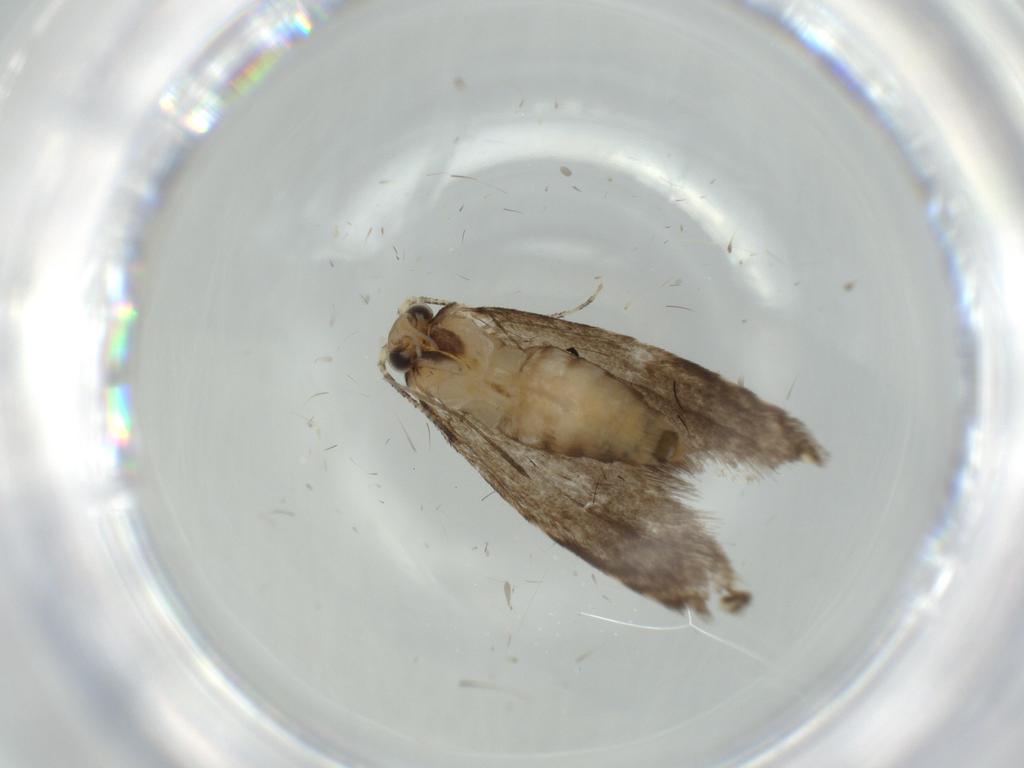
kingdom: Animalia
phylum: Arthropoda
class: Insecta
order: Lepidoptera
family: Tineidae
